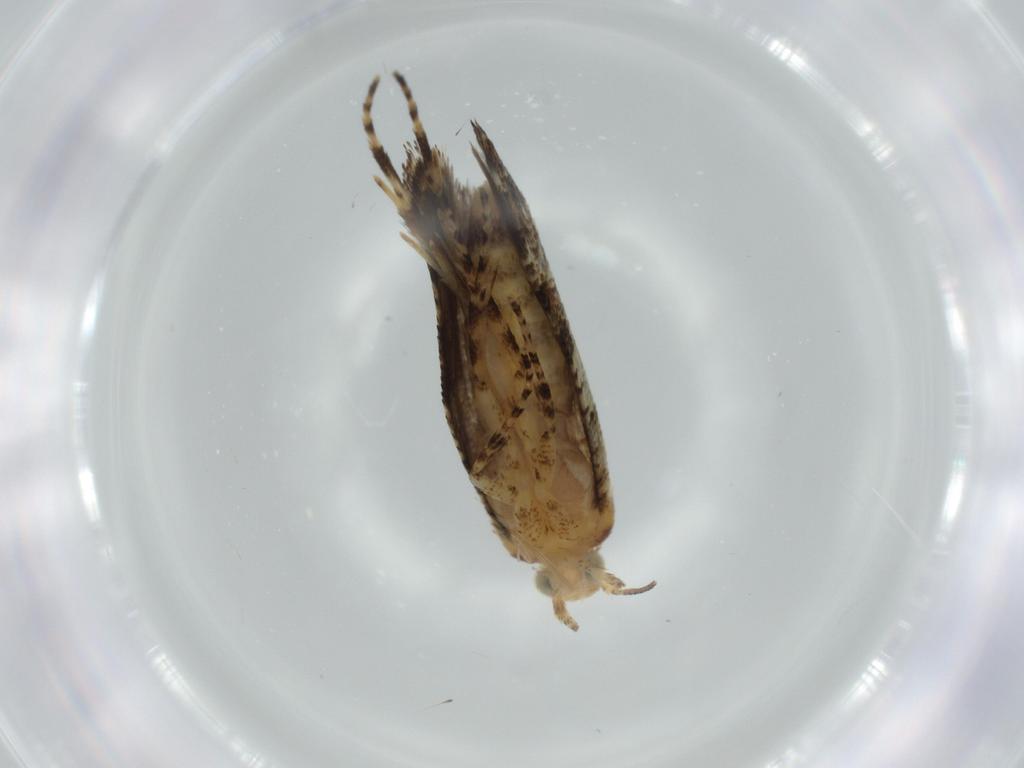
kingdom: Animalia
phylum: Arthropoda
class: Insecta
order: Lepidoptera
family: Glyphipterigidae
